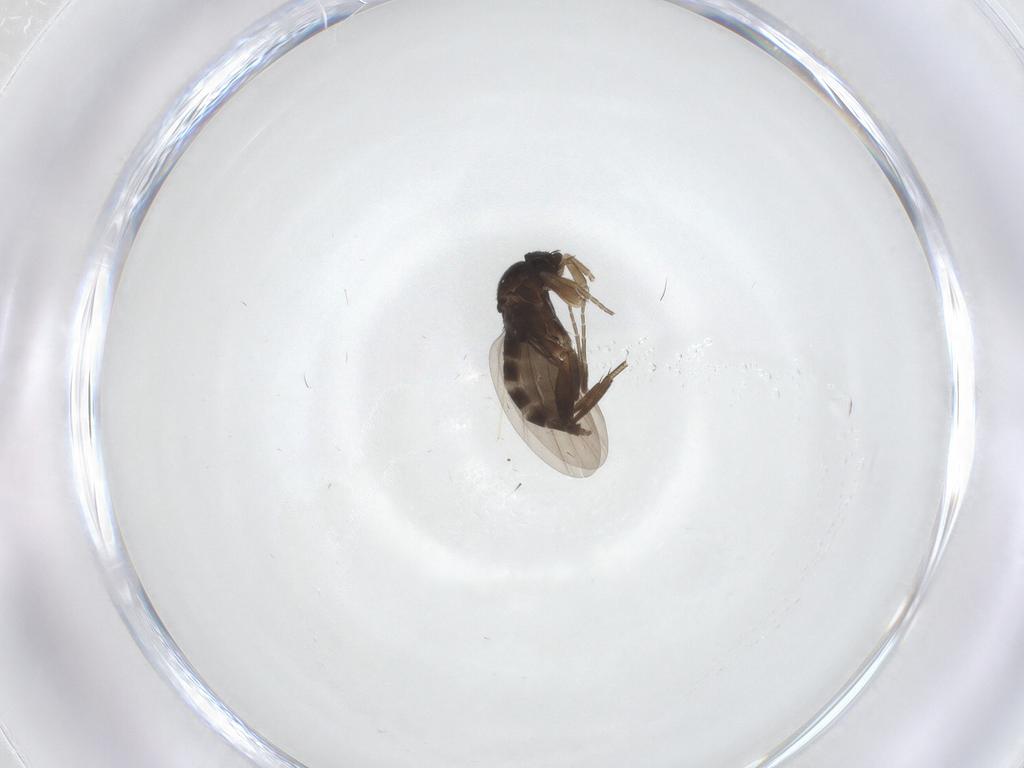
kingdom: Animalia
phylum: Arthropoda
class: Insecta
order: Diptera
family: Phoridae
